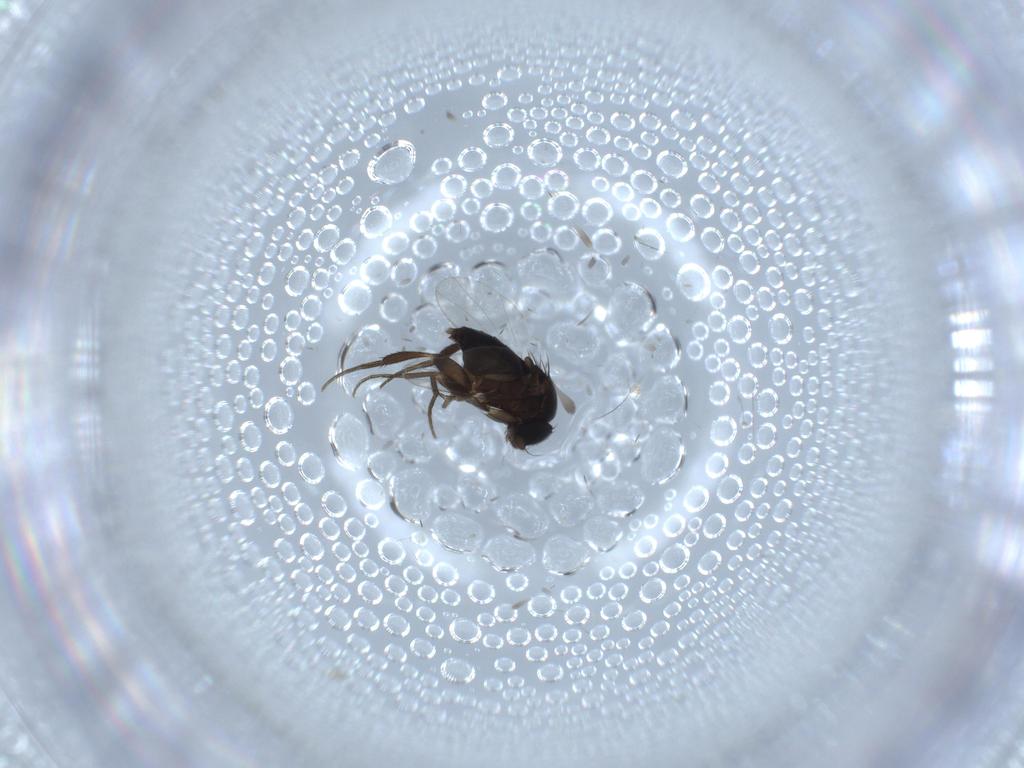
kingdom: Animalia
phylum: Arthropoda
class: Insecta
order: Diptera
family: Phoridae
